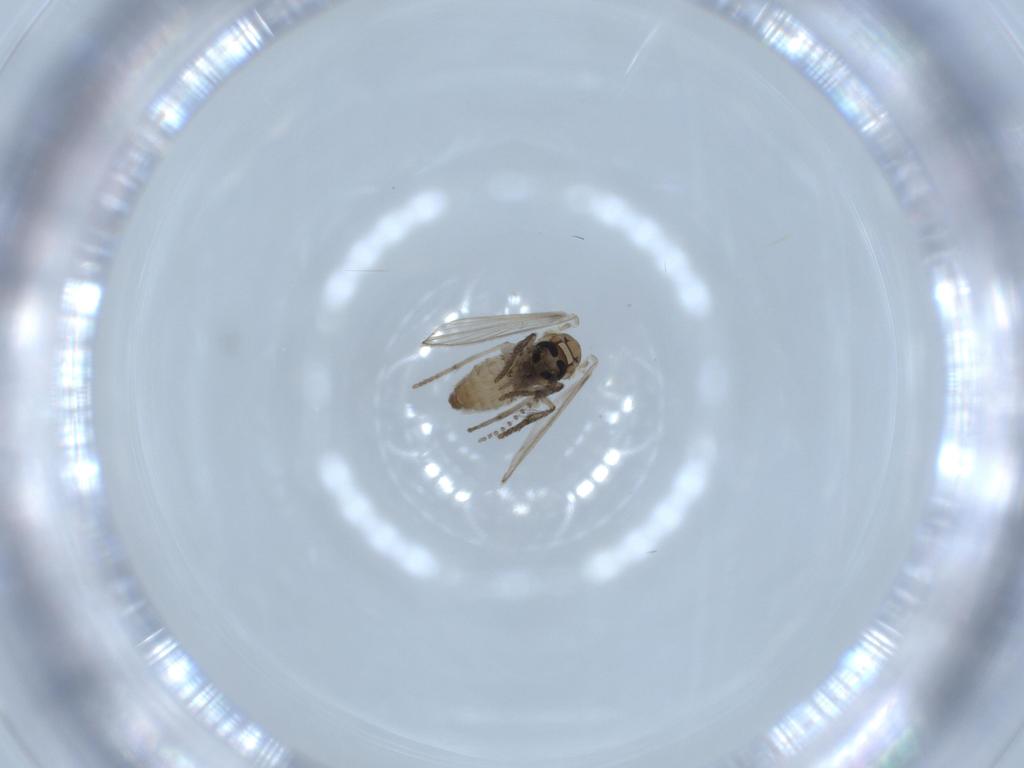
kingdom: Animalia
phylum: Arthropoda
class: Insecta
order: Diptera
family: Psychodidae
